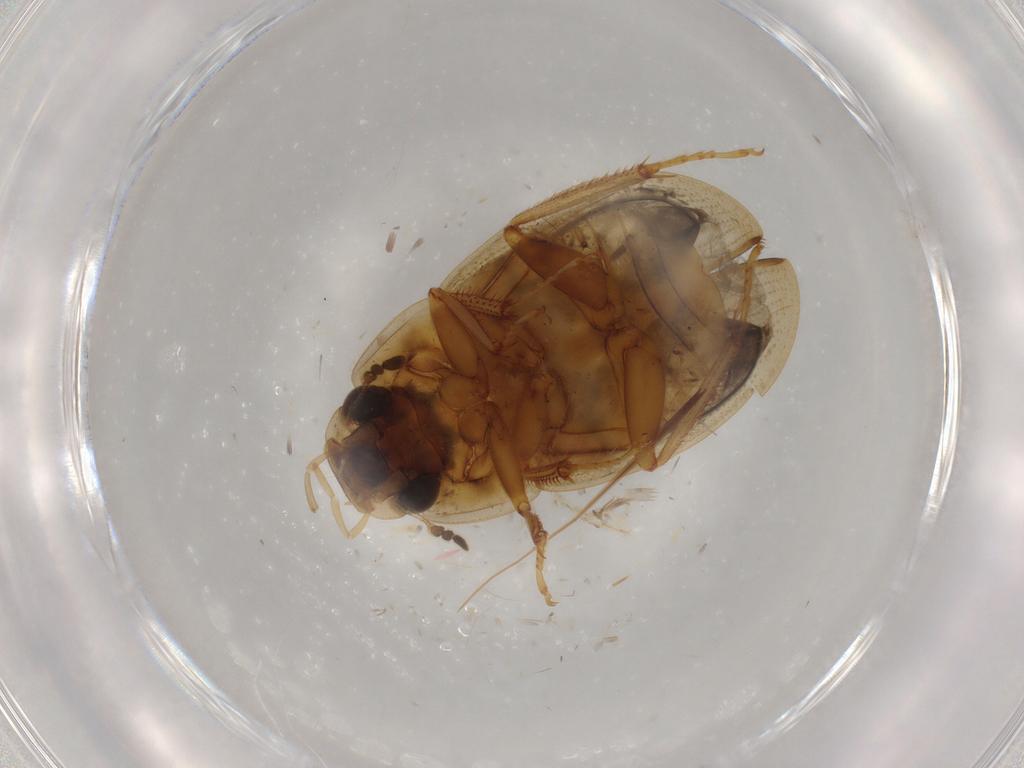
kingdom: Animalia
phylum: Arthropoda
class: Insecta
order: Coleoptera
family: Hydrophilidae
